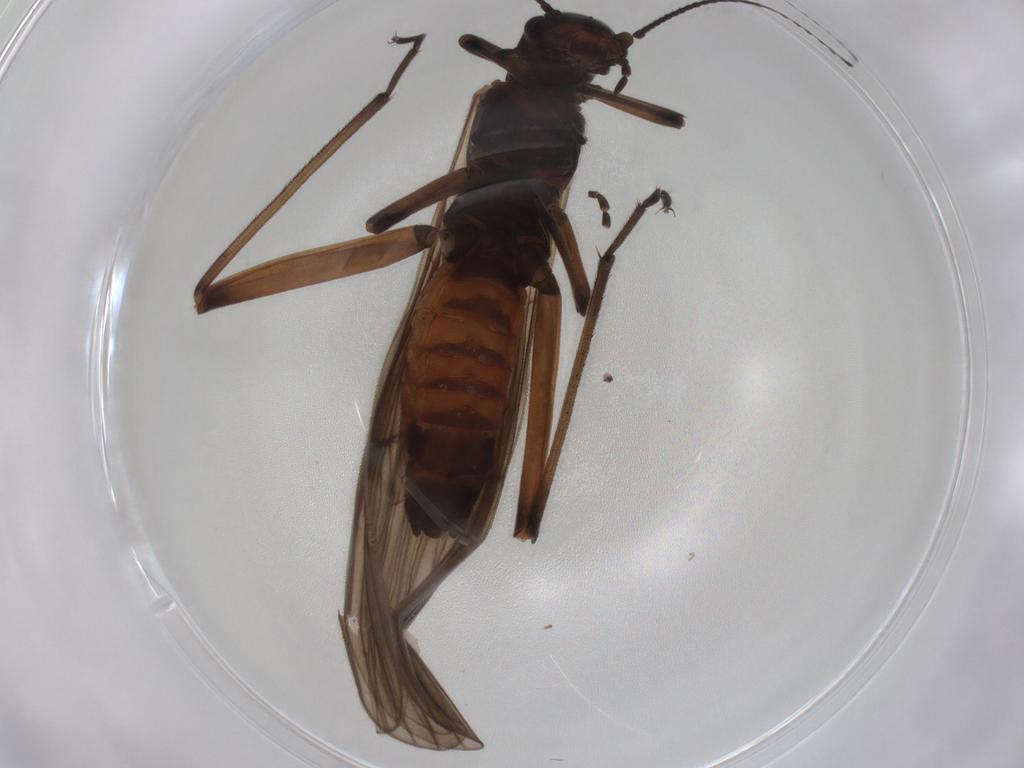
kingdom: Animalia
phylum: Arthropoda
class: Insecta
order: Plecoptera
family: Notonemouridae
